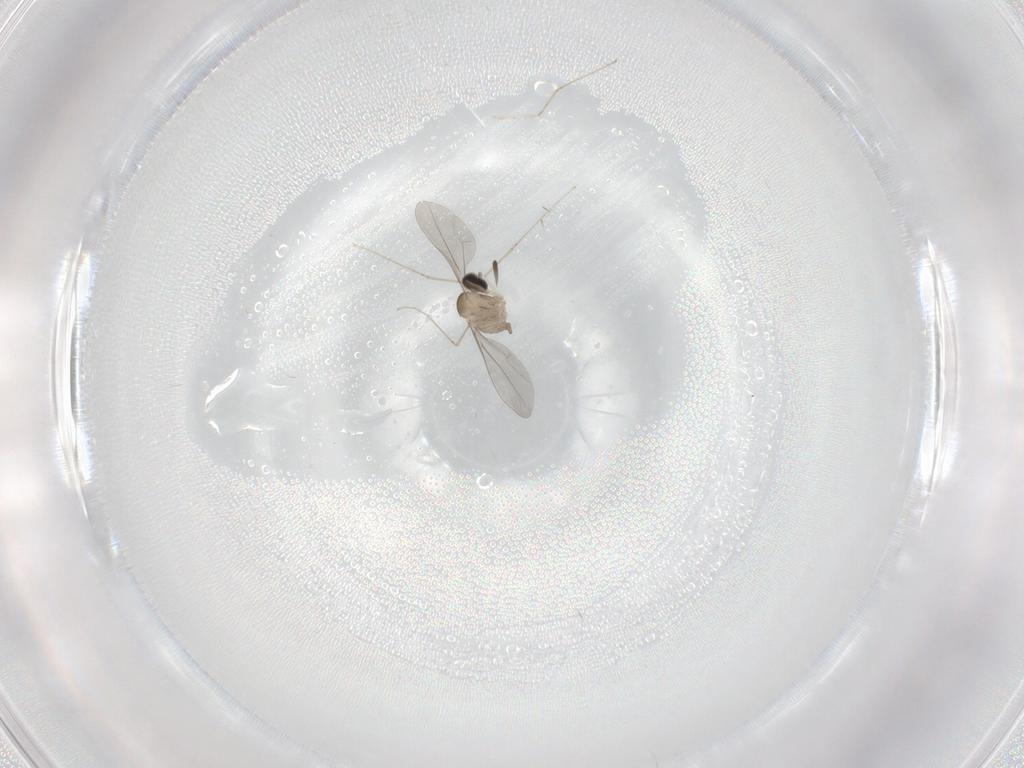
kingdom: Animalia
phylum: Arthropoda
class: Insecta
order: Diptera
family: Cecidomyiidae
